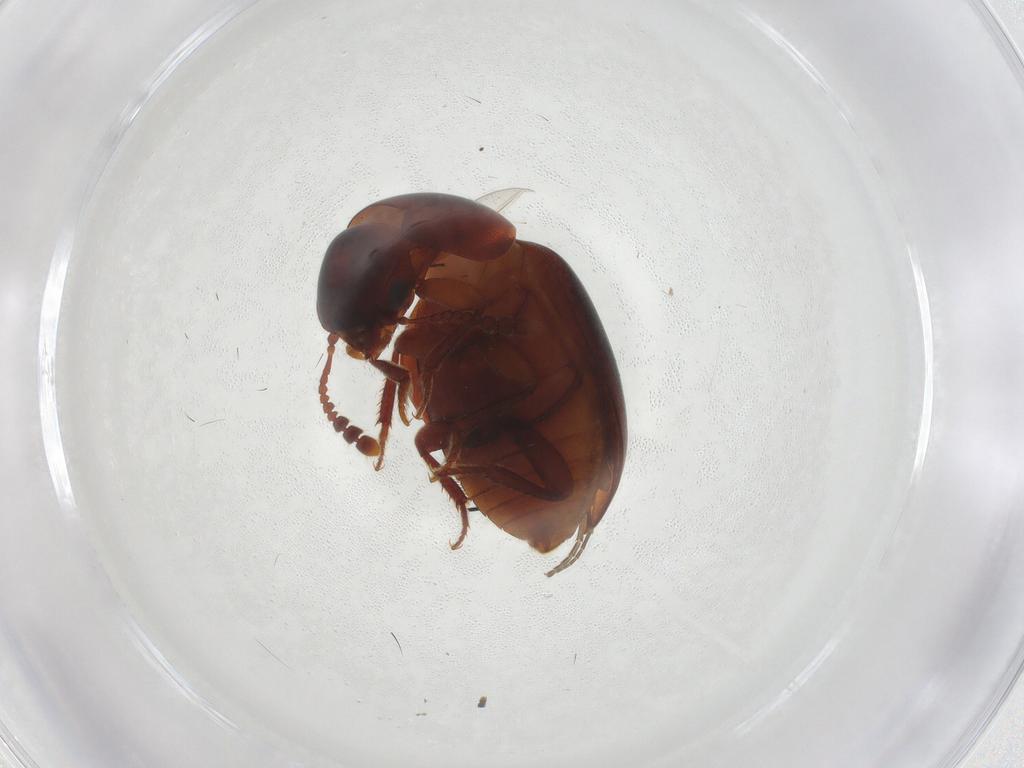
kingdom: Animalia
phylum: Arthropoda
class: Insecta
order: Coleoptera
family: Leiodidae
